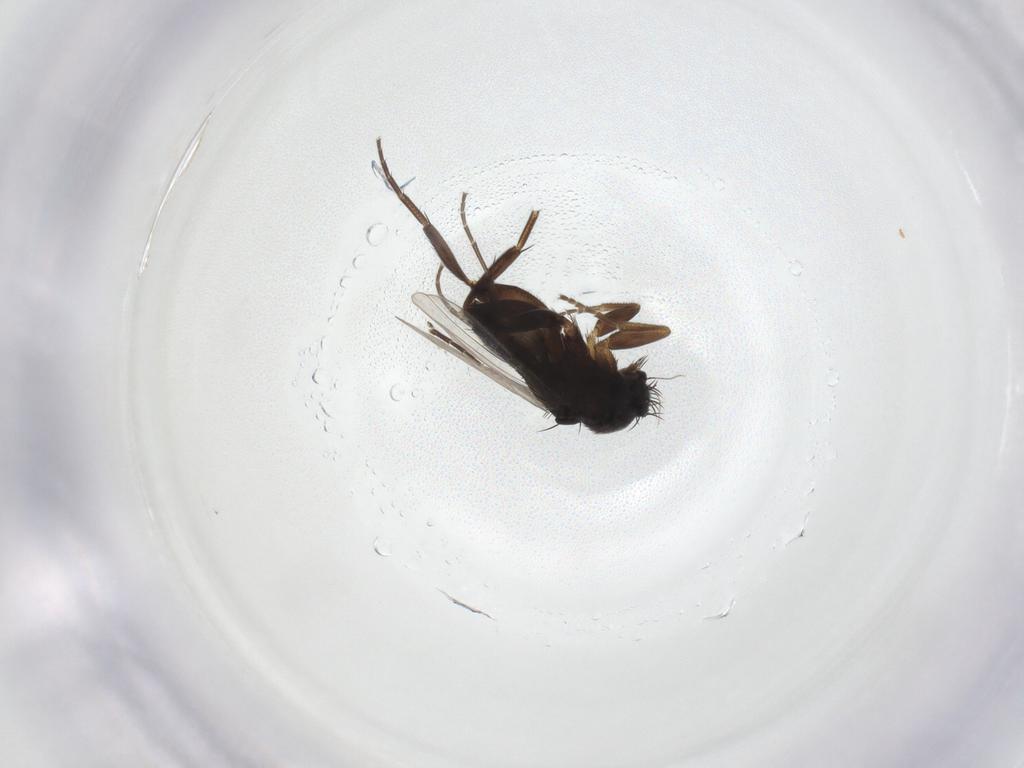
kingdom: Animalia
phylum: Arthropoda
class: Insecta
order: Diptera
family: Phoridae
